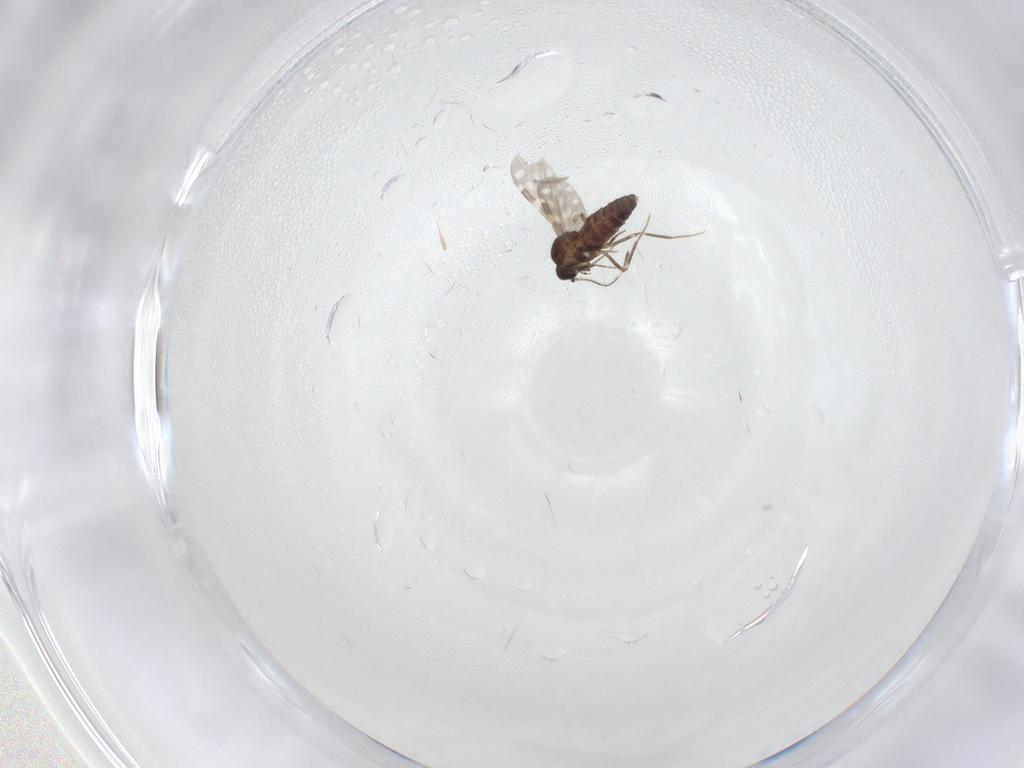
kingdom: Animalia
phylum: Arthropoda
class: Insecta
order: Diptera
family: Ceratopogonidae
